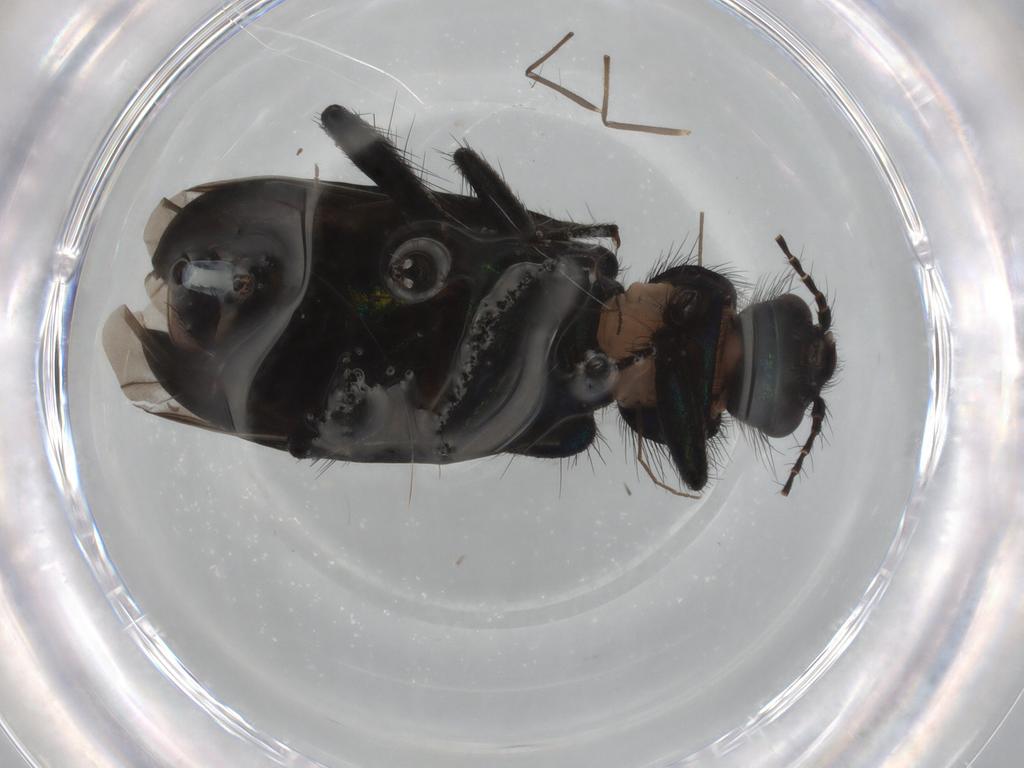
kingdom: Animalia
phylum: Arthropoda
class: Insecta
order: Coleoptera
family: Melyridae
